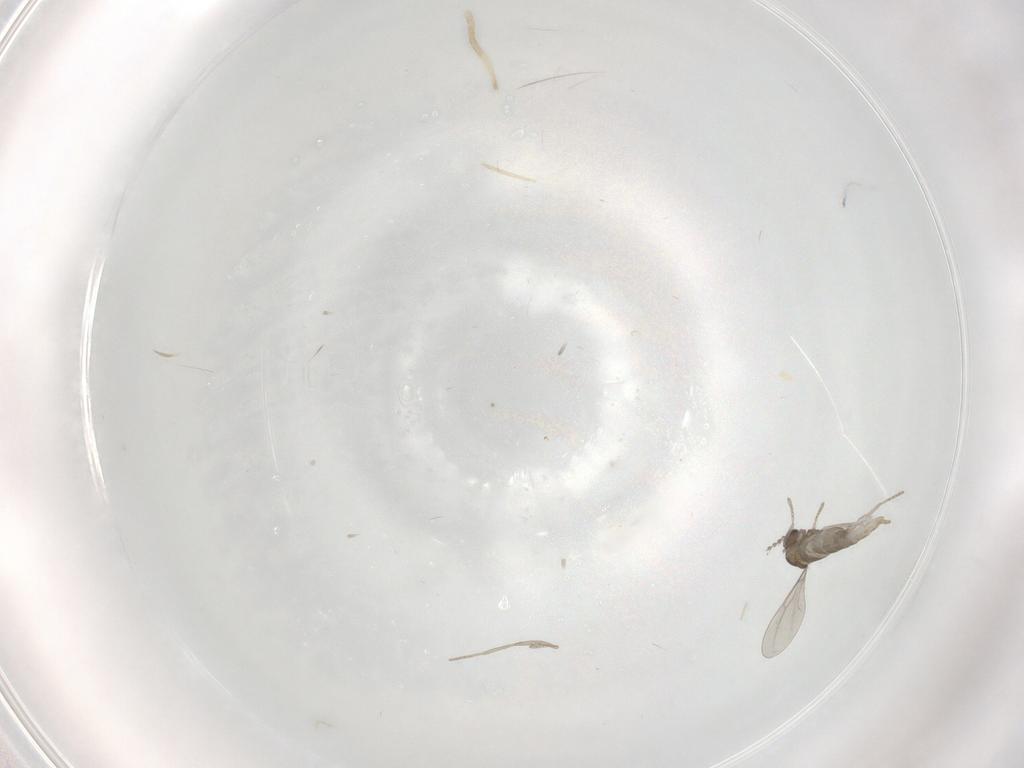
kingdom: Animalia
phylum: Arthropoda
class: Insecta
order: Diptera
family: Cecidomyiidae
